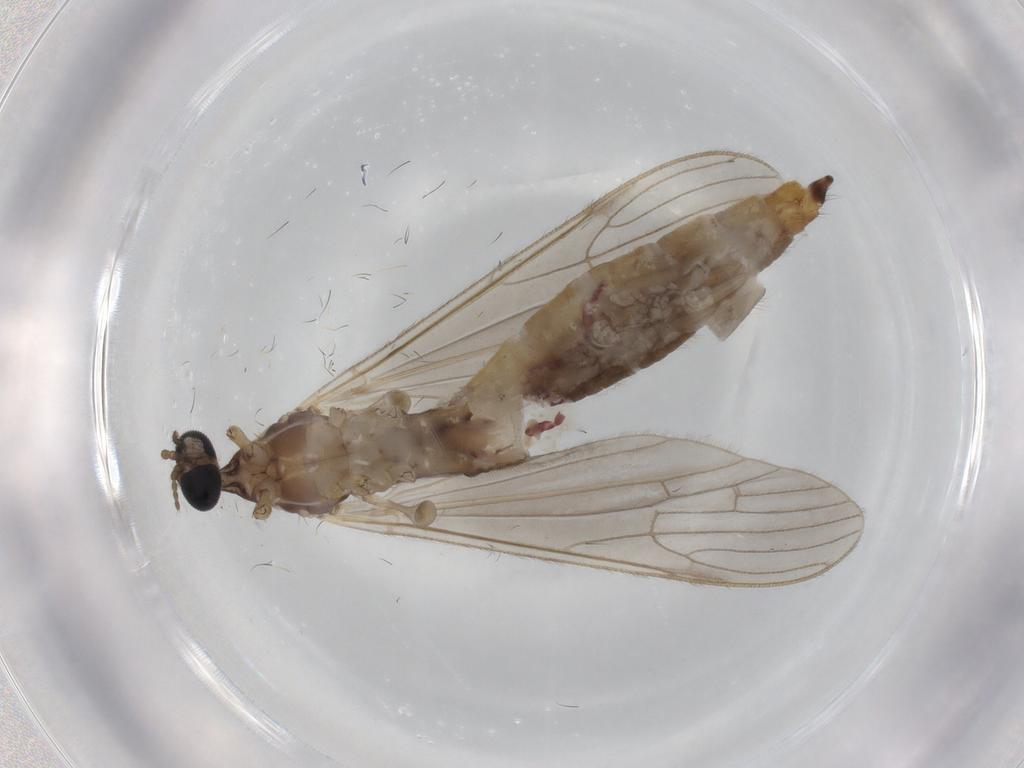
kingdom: Animalia
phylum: Arthropoda
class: Insecta
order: Diptera
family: Limoniidae
